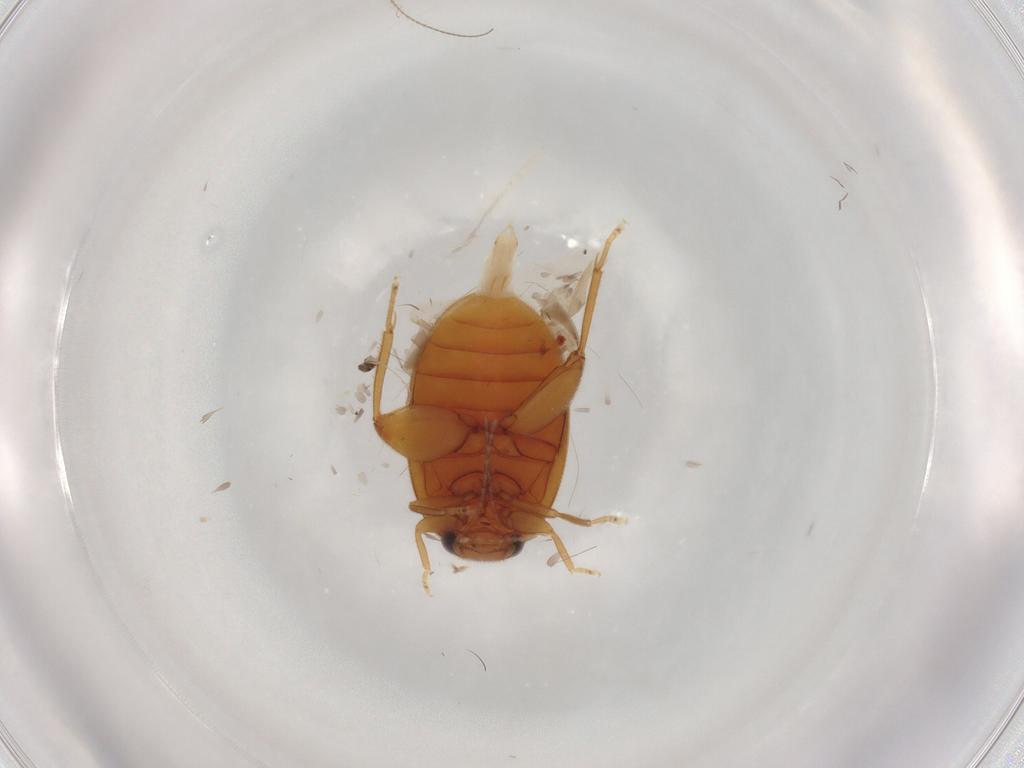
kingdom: Animalia
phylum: Arthropoda
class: Insecta
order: Coleoptera
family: Scirtidae
